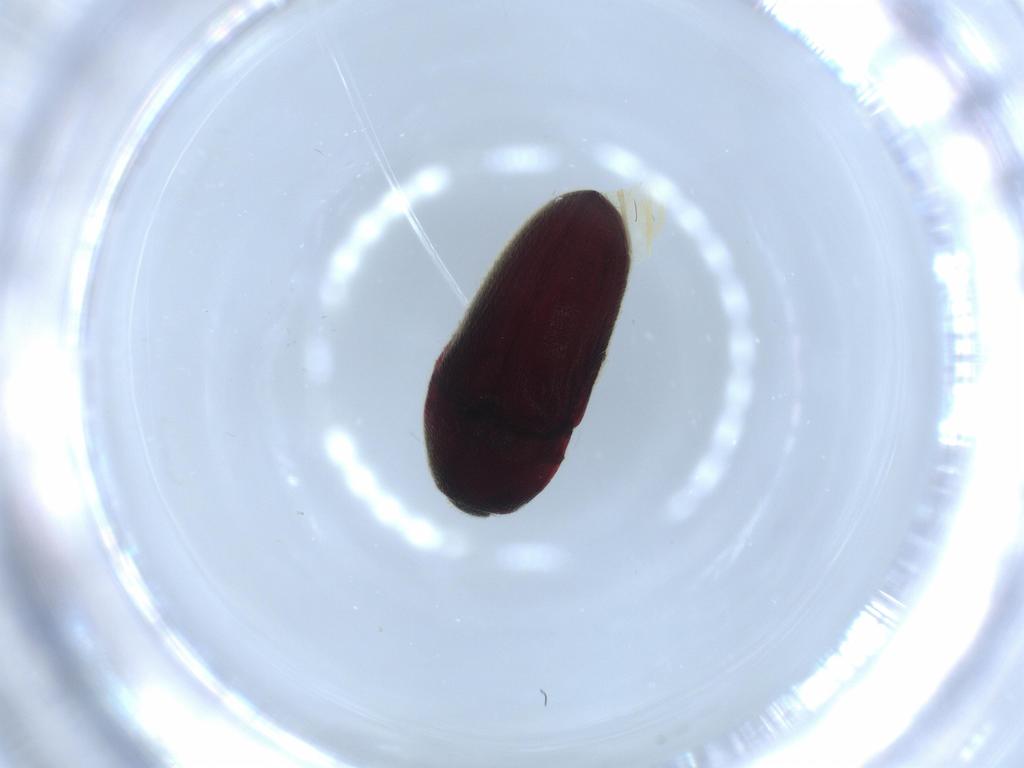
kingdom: Animalia
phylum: Arthropoda
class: Insecta
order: Coleoptera
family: Throscidae
